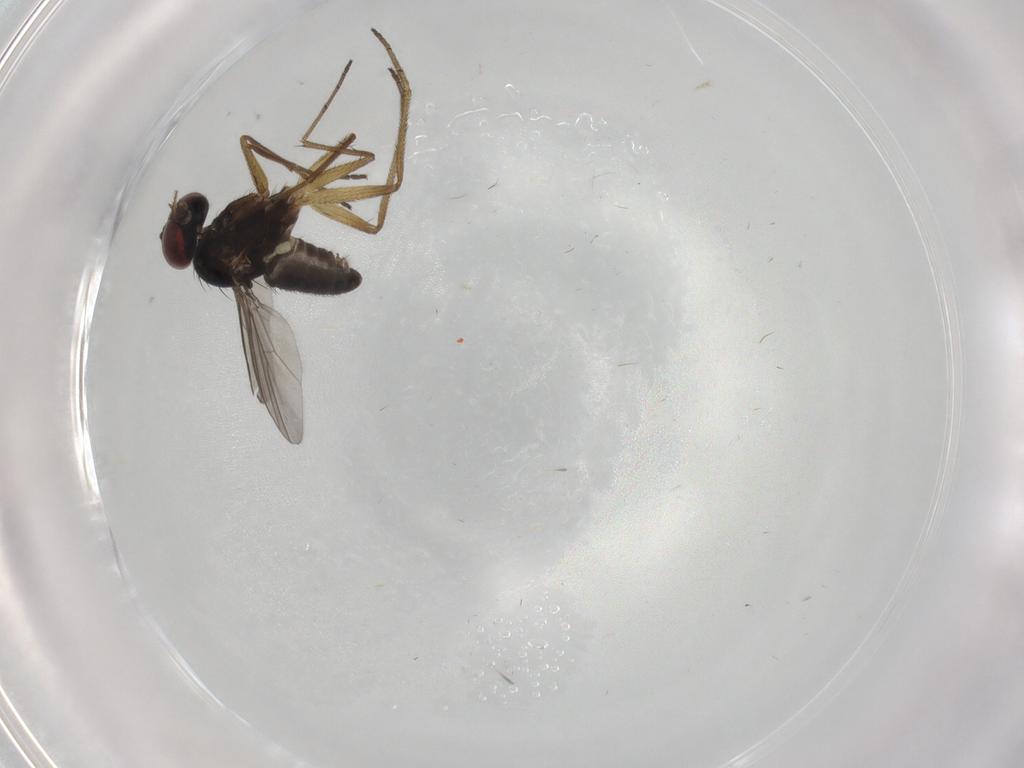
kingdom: Animalia
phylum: Arthropoda
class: Insecta
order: Diptera
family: Dolichopodidae
